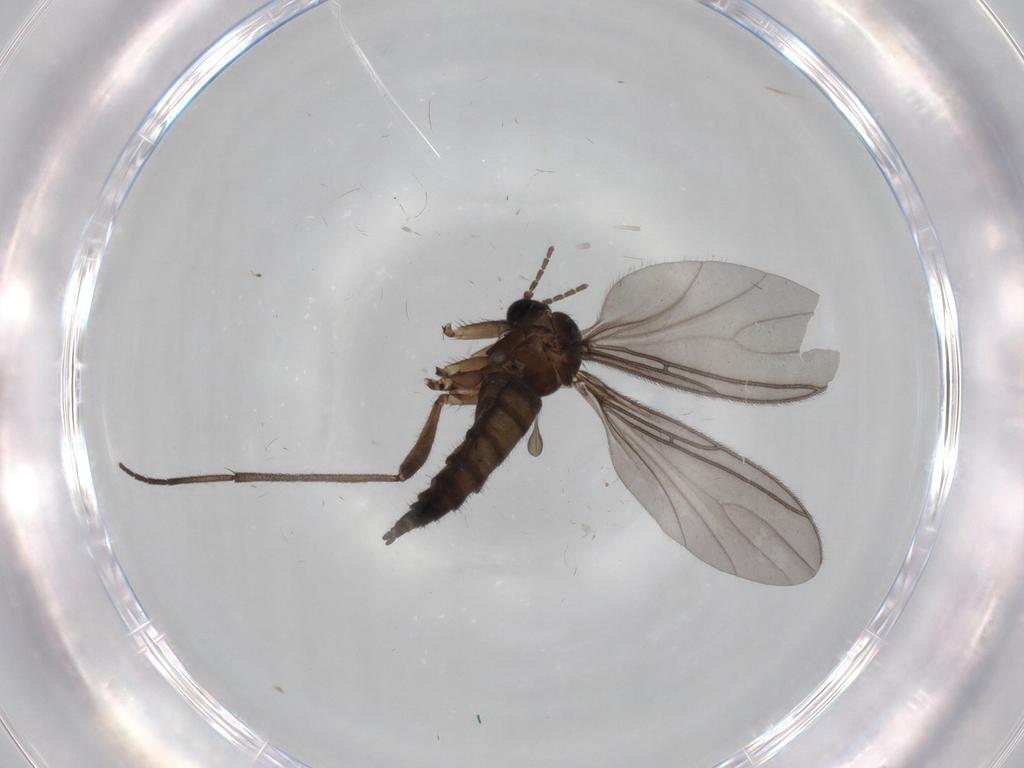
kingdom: Animalia
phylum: Arthropoda
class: Insecta
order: Diptera
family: Sciaridae
